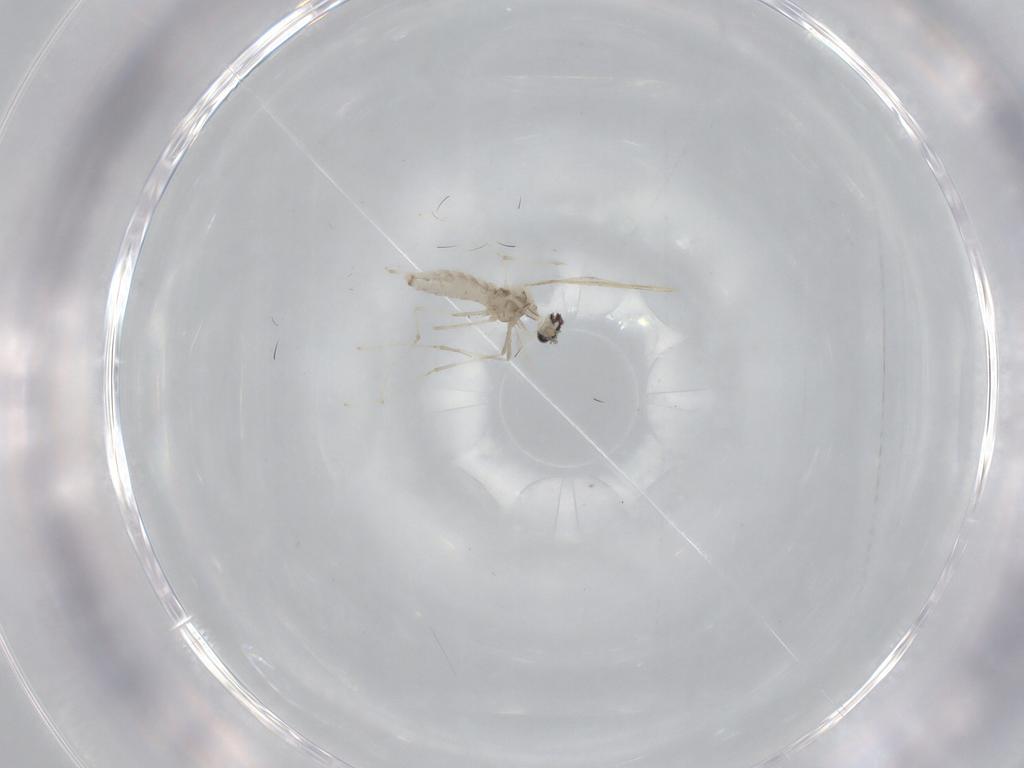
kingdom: Animalia
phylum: Arthropoda
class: Insecta
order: Diptera
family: Cecidomyiidae
